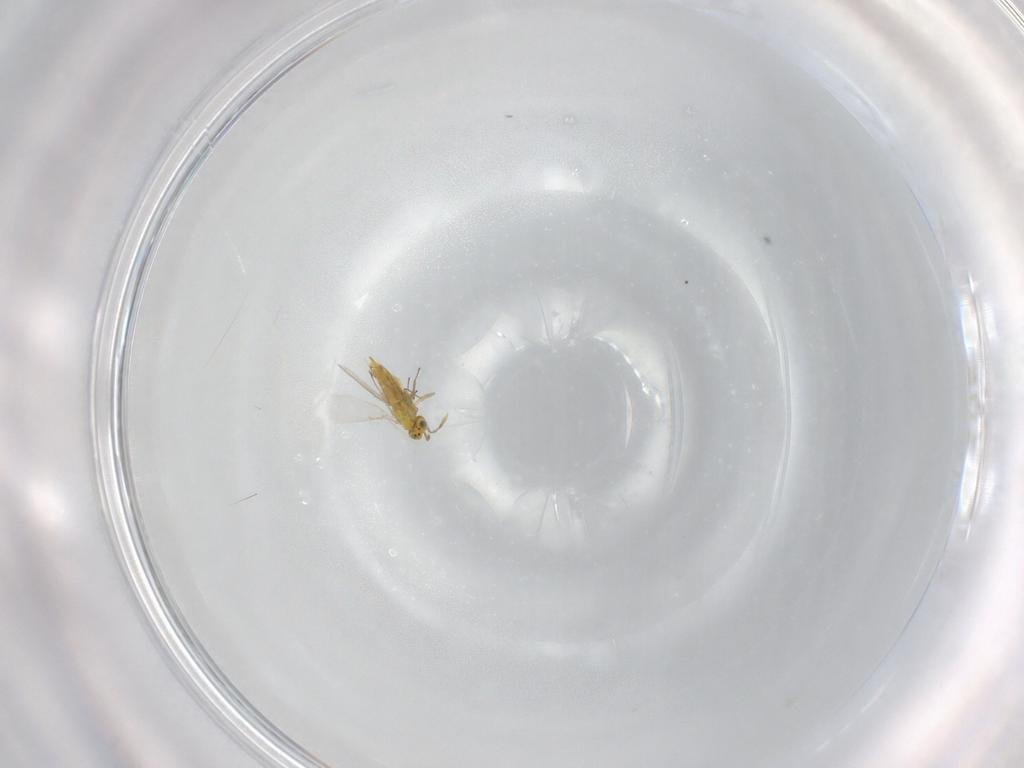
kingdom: Animalia
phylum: Arthropoda
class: Insecta
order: Hymenoptera
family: Aphelinidae
